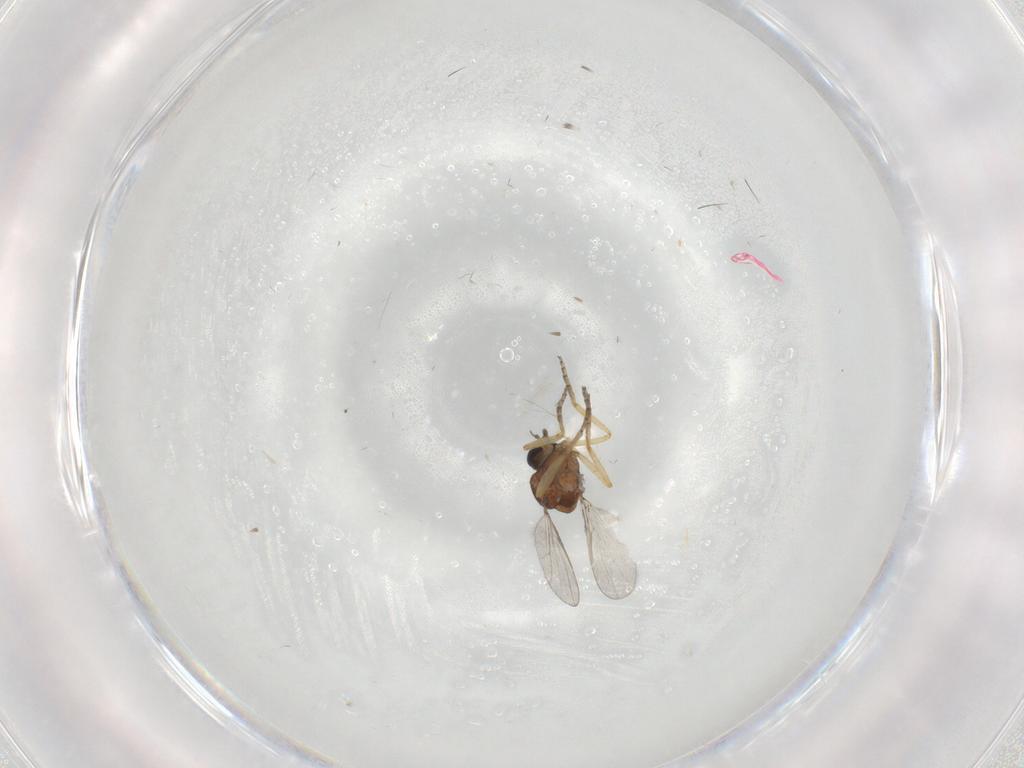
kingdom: Animalia
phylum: Arthropoda
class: Insecta
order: Diptera
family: Ceratopogonidae
